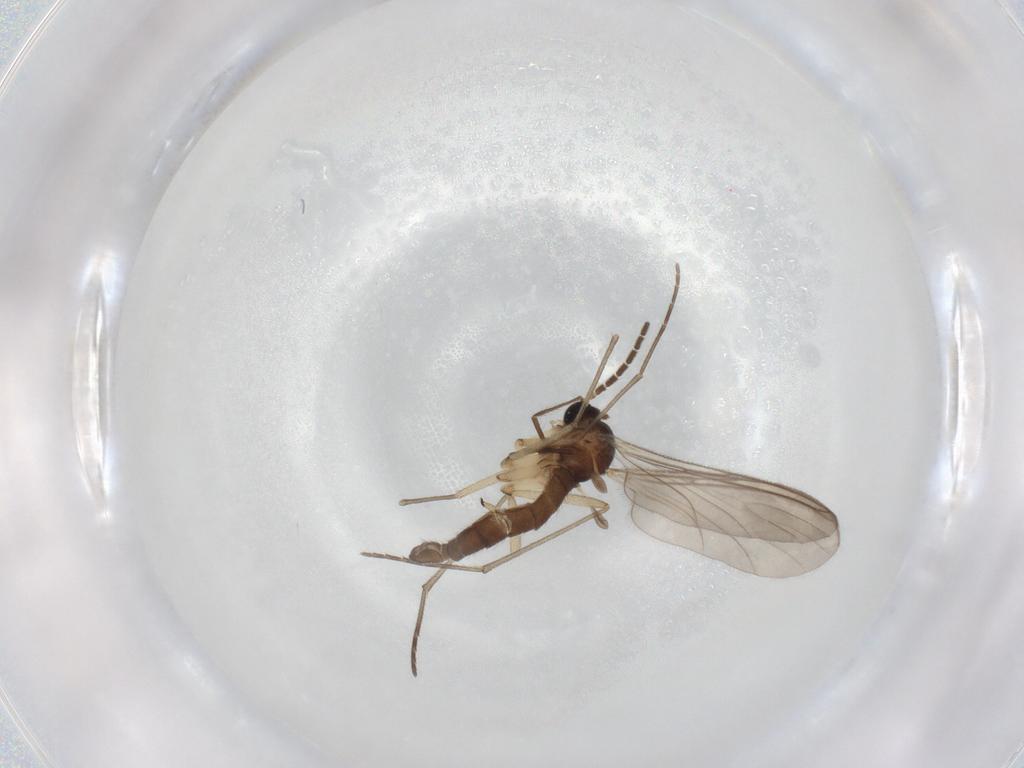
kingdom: Animalia
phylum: Arthropoda
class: Insecta
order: Diptera
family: Sciaridae
